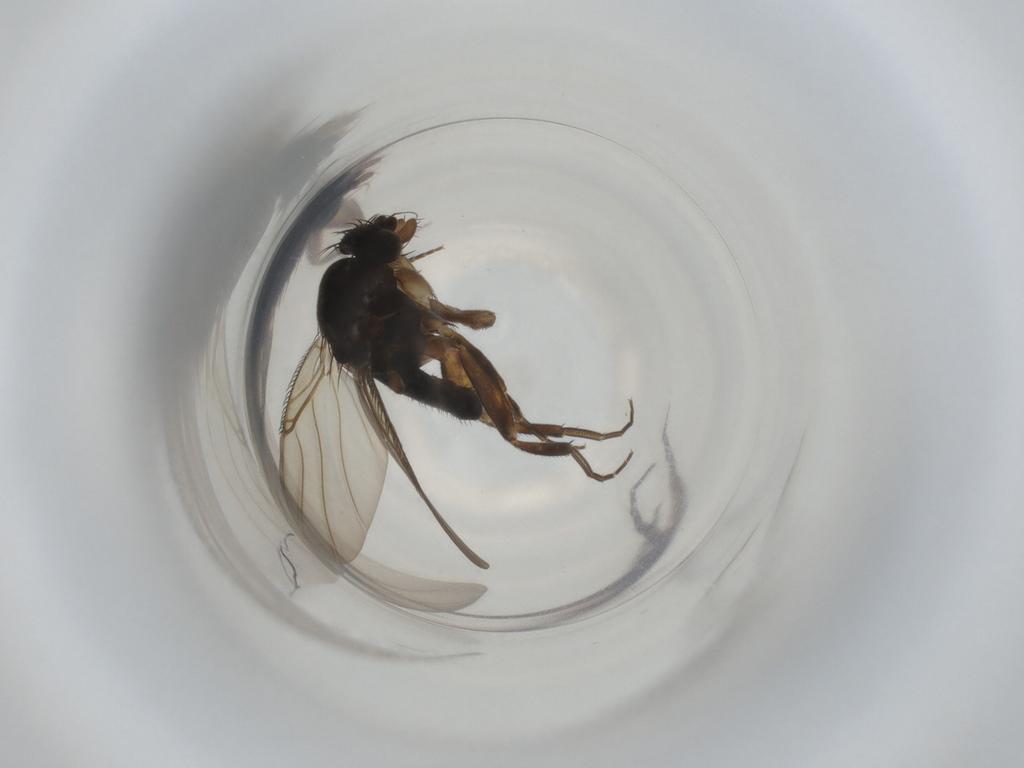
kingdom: Animalia
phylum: Arthropoda
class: Insecta
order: Diptera
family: Phoridae
